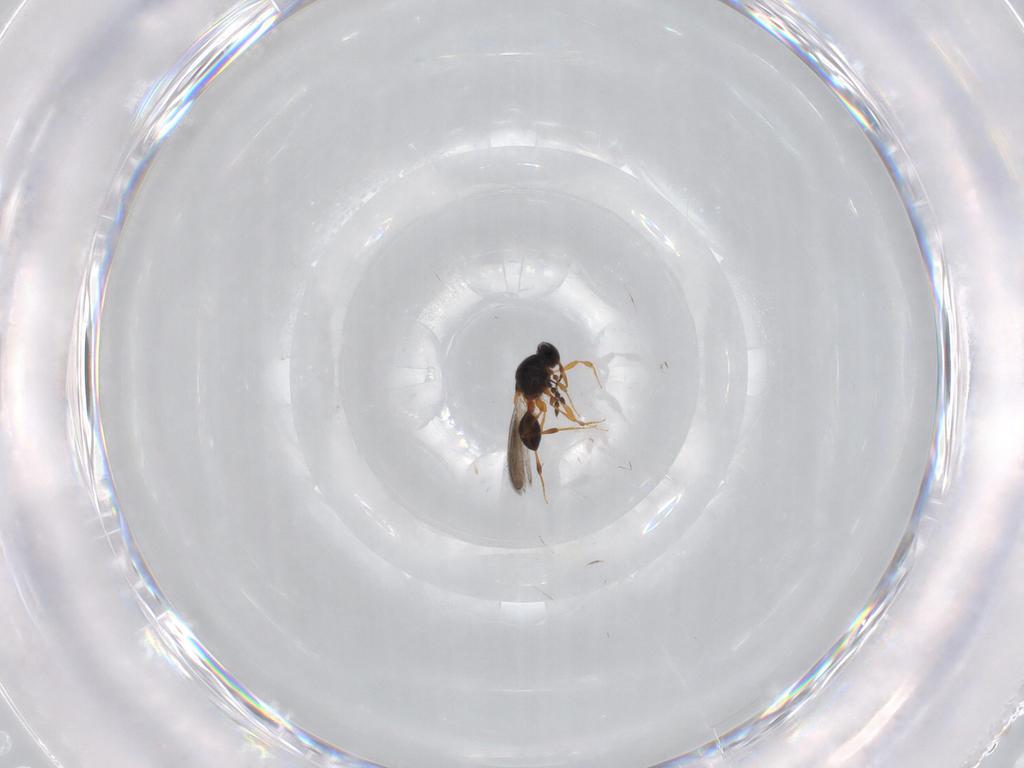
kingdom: Animalia
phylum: Arthropoda
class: Insecta
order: Hymenoptera
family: Platygastridae
